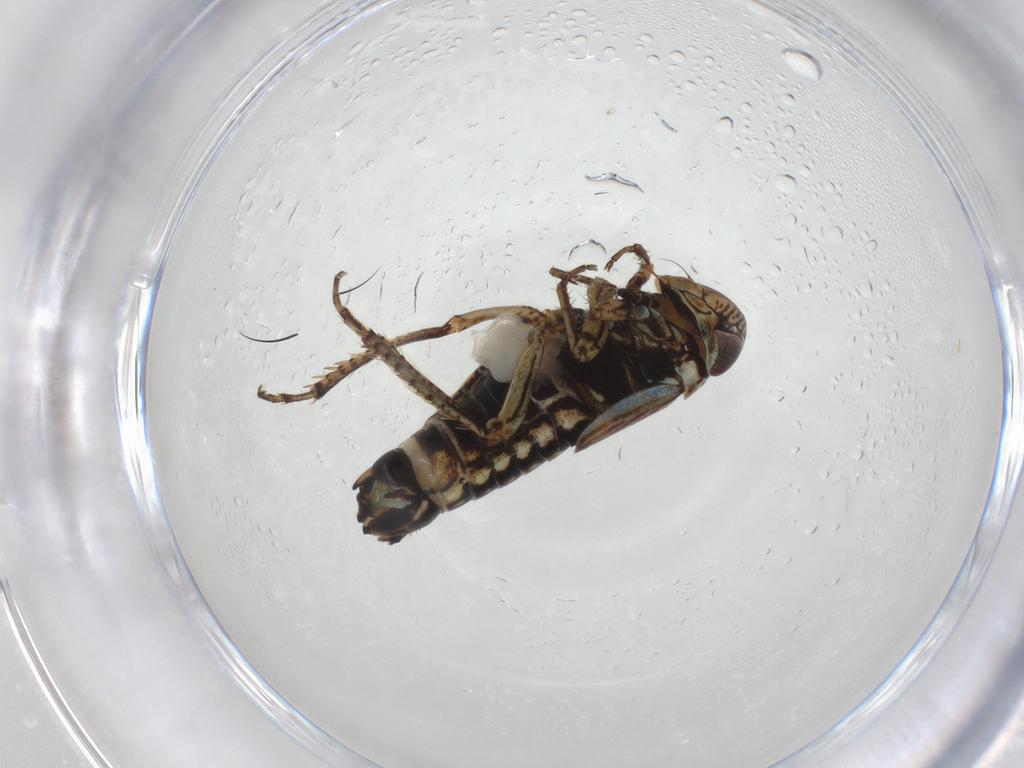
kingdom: Animalia
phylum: Arthropoda
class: Insecta
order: Hemiptera
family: Cicadellidae
